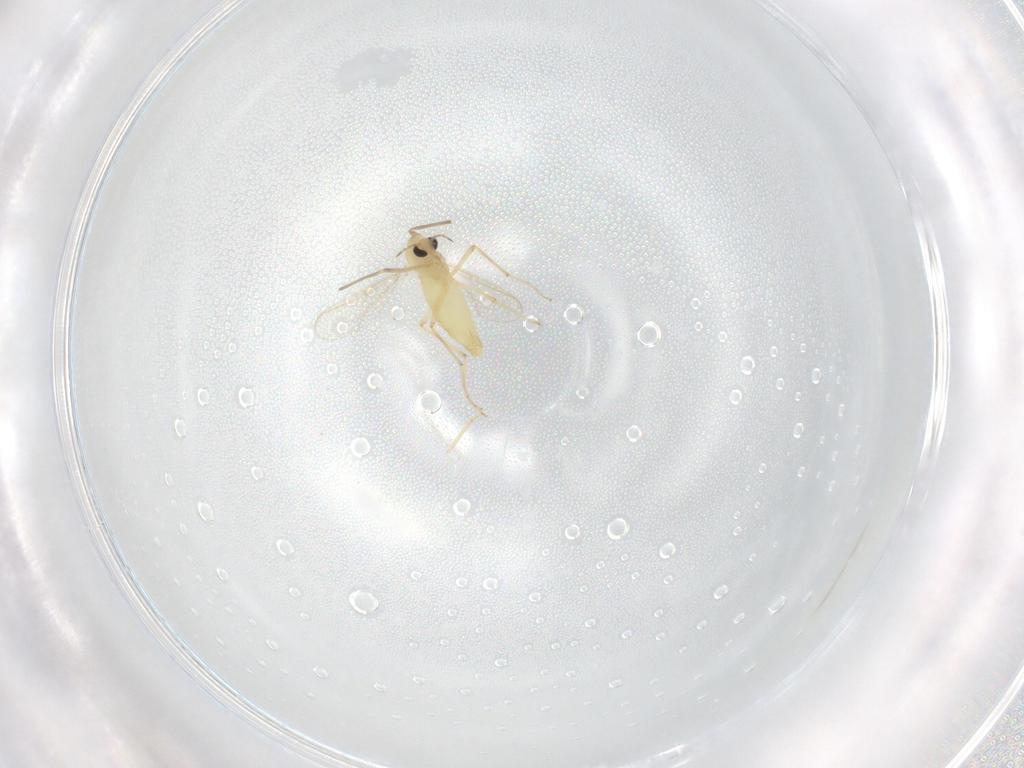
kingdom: Animalia
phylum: Arthropoda
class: Insecta
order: Diptera
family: Chironomidae
